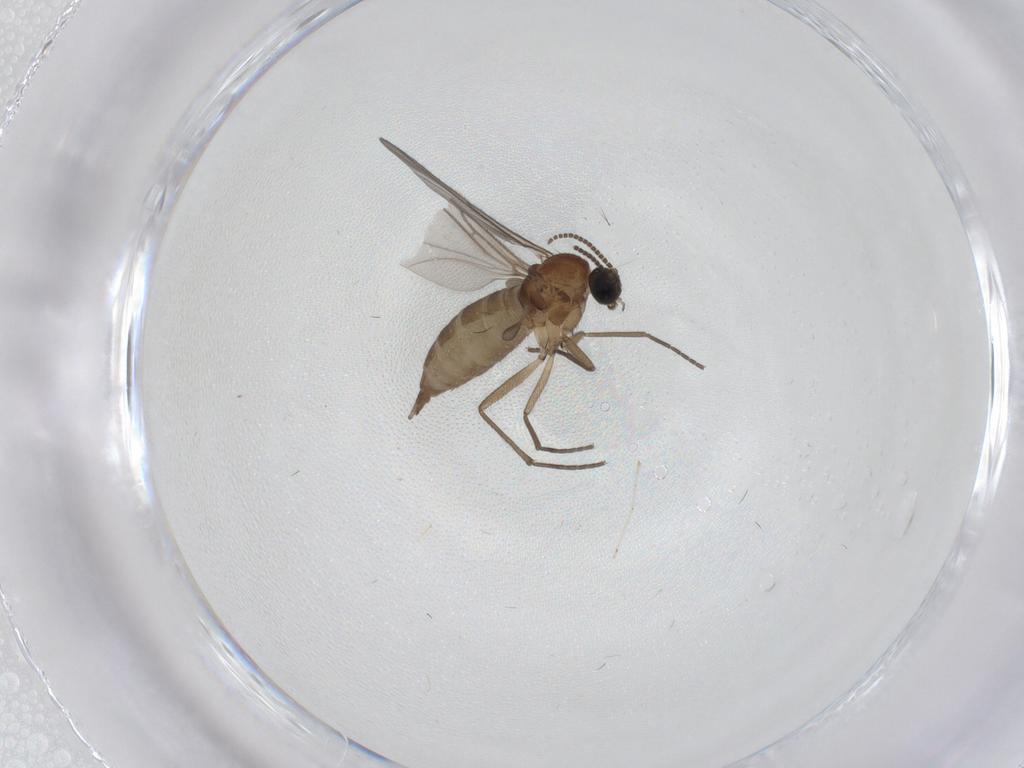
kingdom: Animalia
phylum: Arthropoda
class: Insecta
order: Diptera
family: Sciaridae
